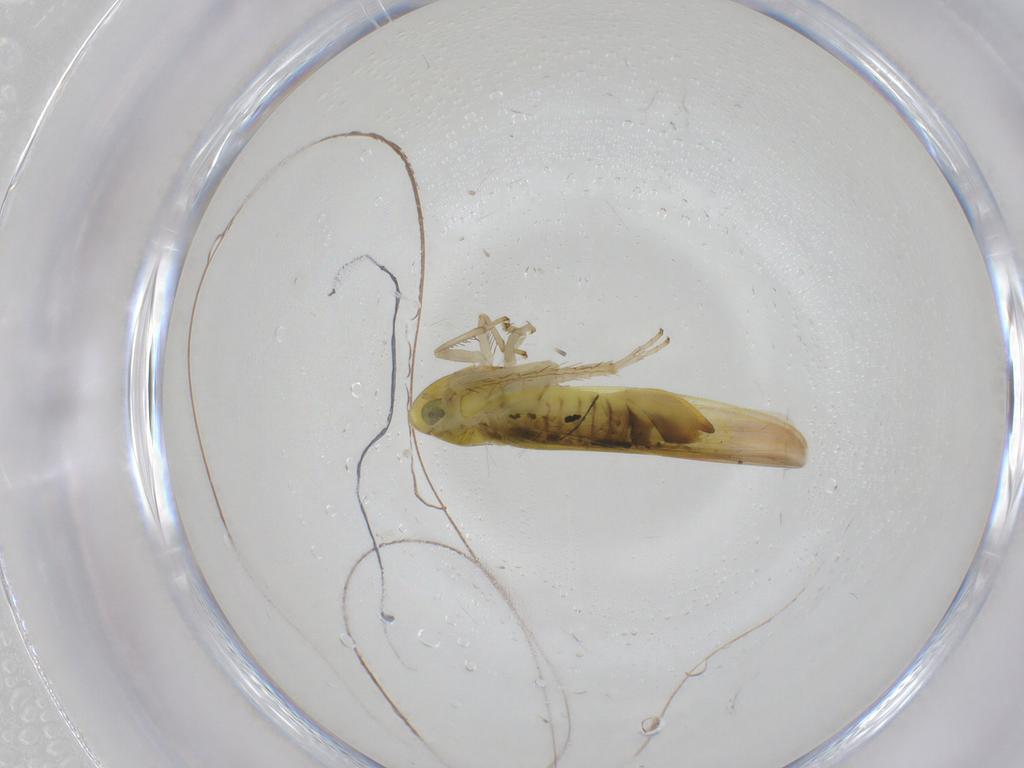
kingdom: Animalia
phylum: Arthropoda
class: Insecta
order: Hemiptera
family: Cicadellidae
